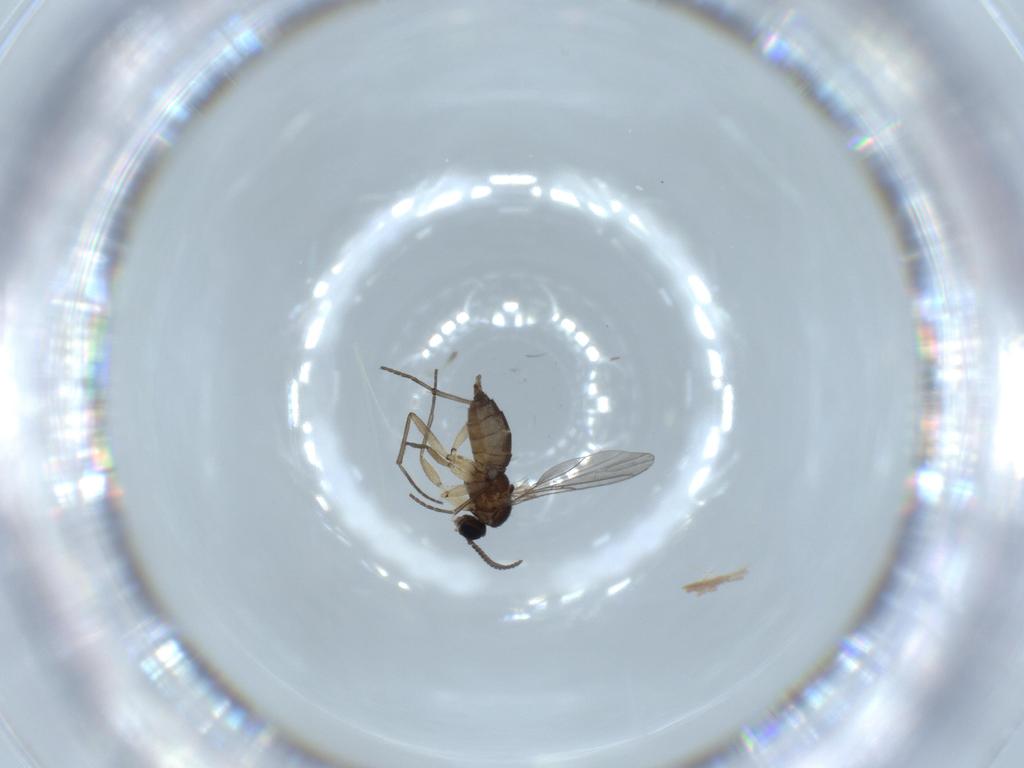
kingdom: Animalia
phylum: Arthropoda
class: Insecta
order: Diptera
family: Sciaridae
